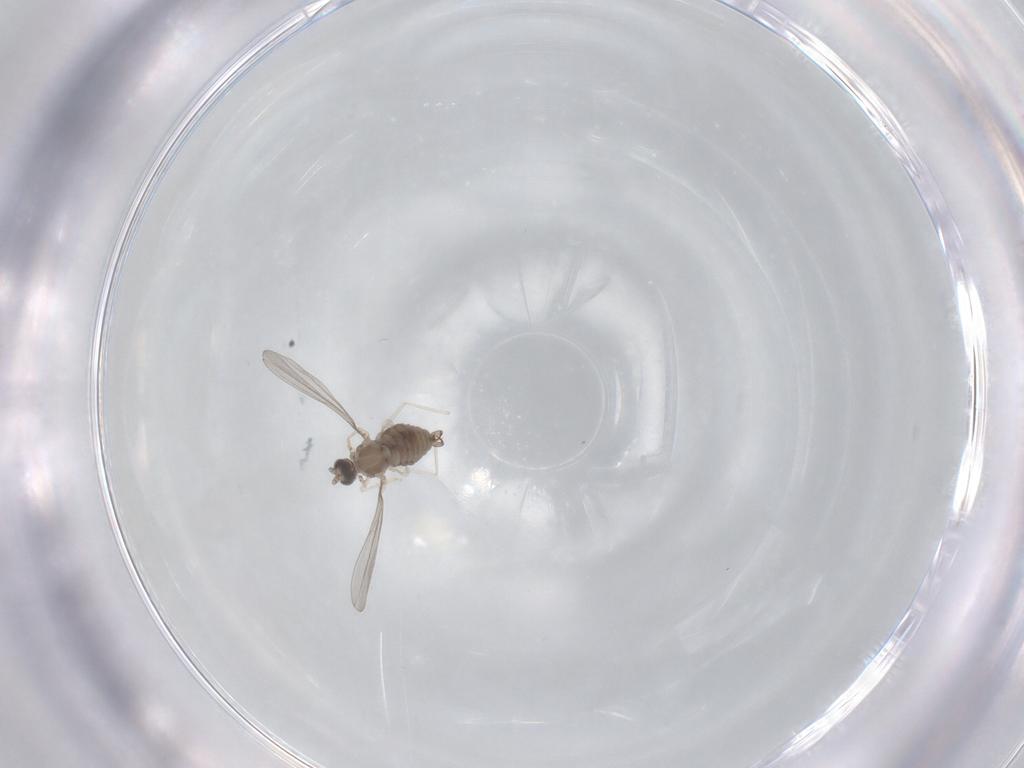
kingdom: Animalia
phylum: Arthropoda
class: Insecta
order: Diptera
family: Cecidomyiidae
